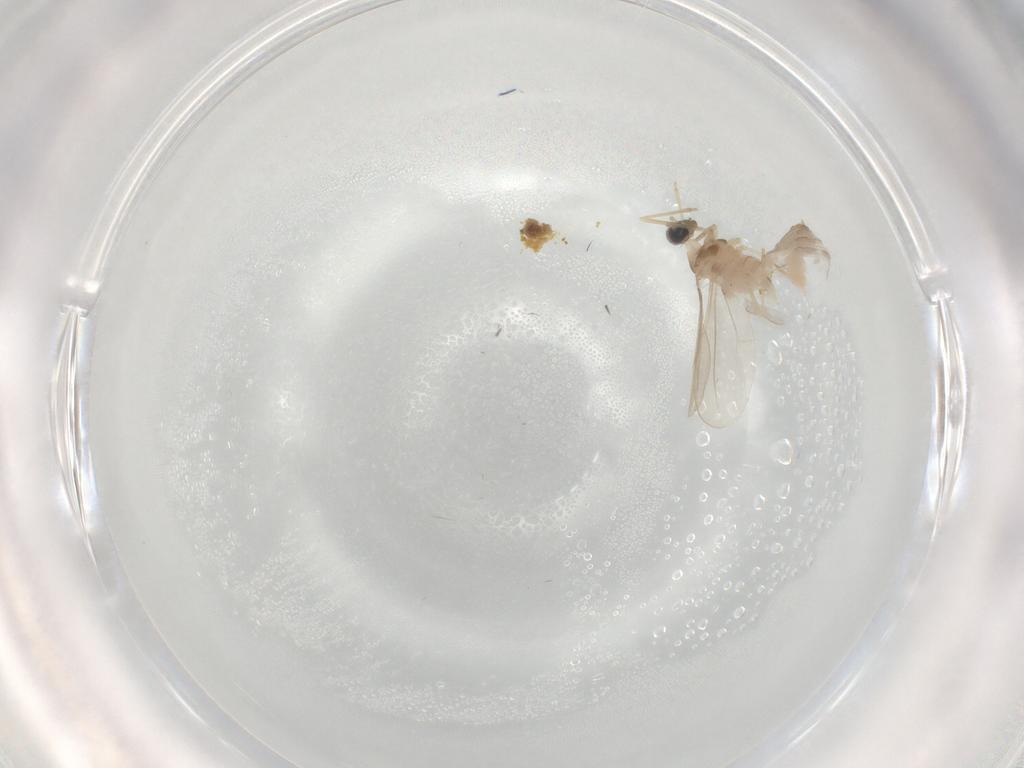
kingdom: Animalia
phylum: Arthropoda
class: Insecta
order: Diptera
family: Cecidomyiidae
